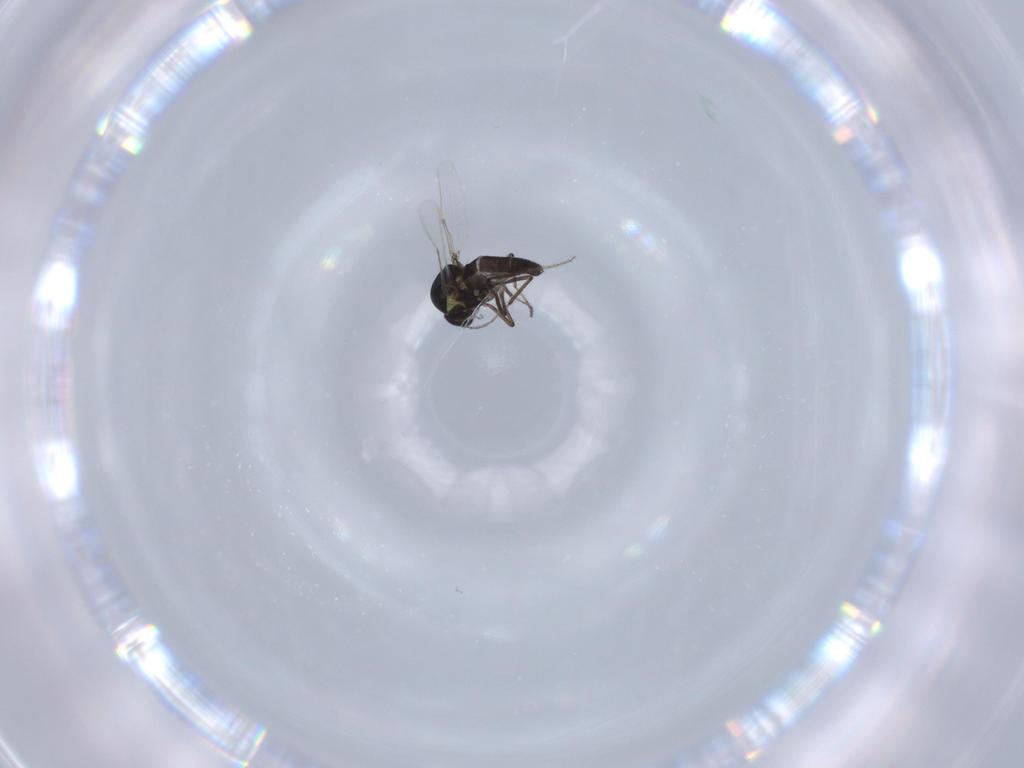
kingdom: Animalia
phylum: Arthropoda
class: Insecta
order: Diptera
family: Ceratopogonidae
